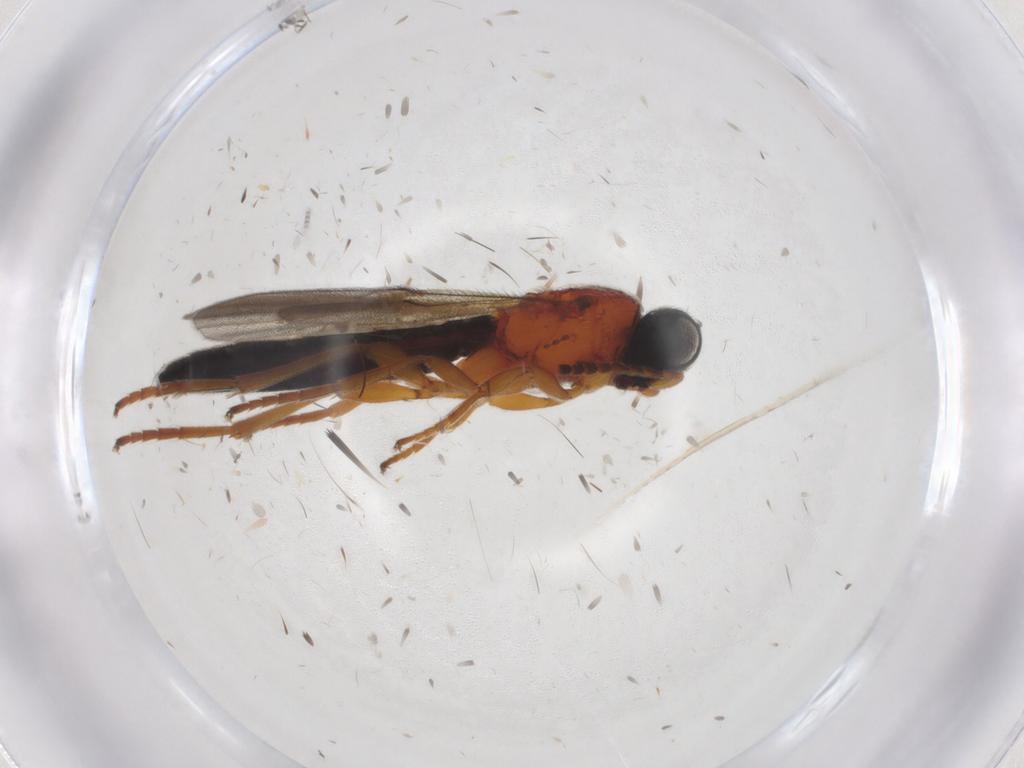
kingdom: Animalia
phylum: Arthropoda
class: Insecta
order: Hymenoptera
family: Scelionidae
